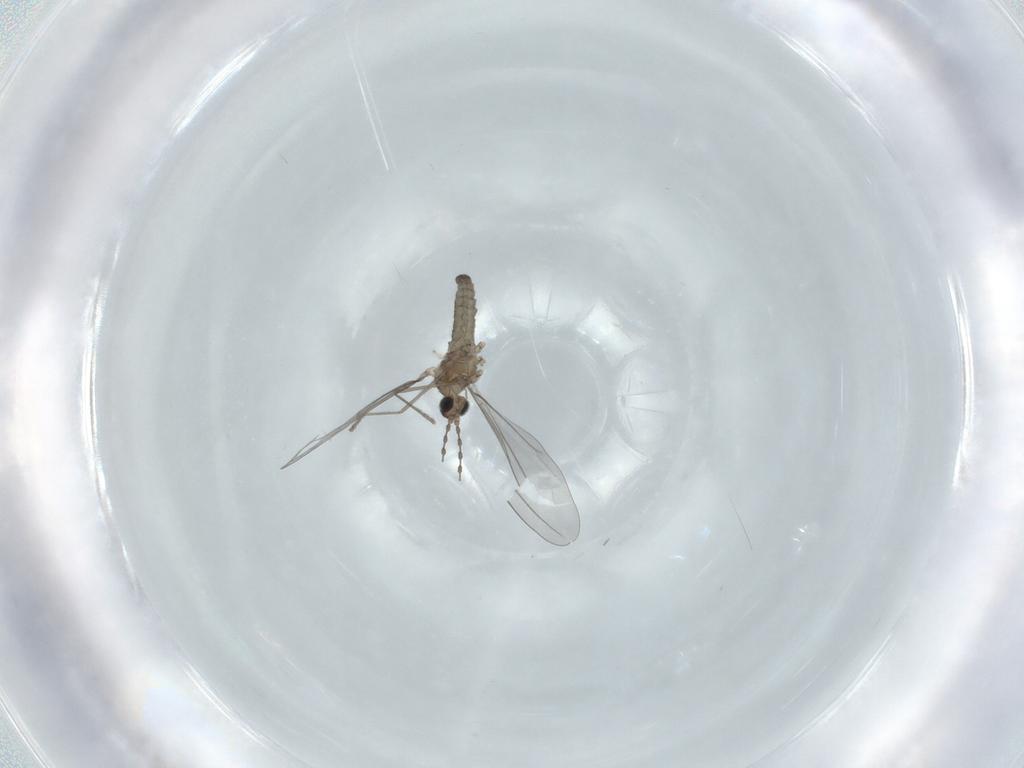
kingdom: Animalia
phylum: Arthropoda
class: Insecta
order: Diptera
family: Cecidomyiidae
